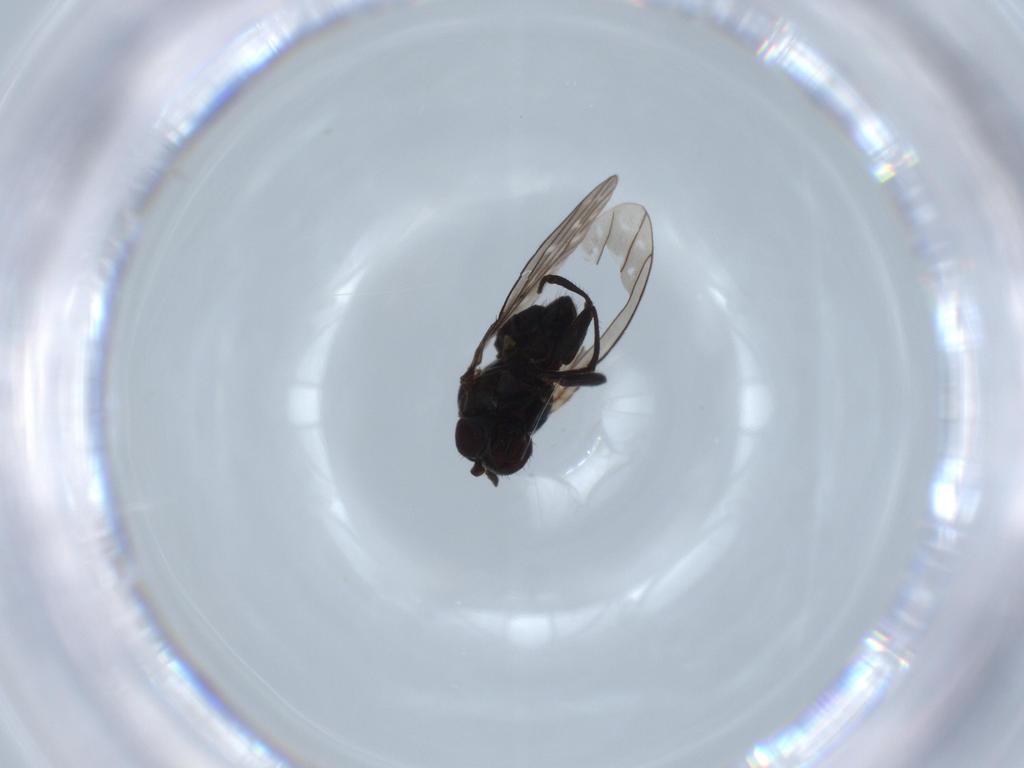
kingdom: Animalia
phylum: Arthropoda
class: Insecta
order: Diptera
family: Ephydridae
